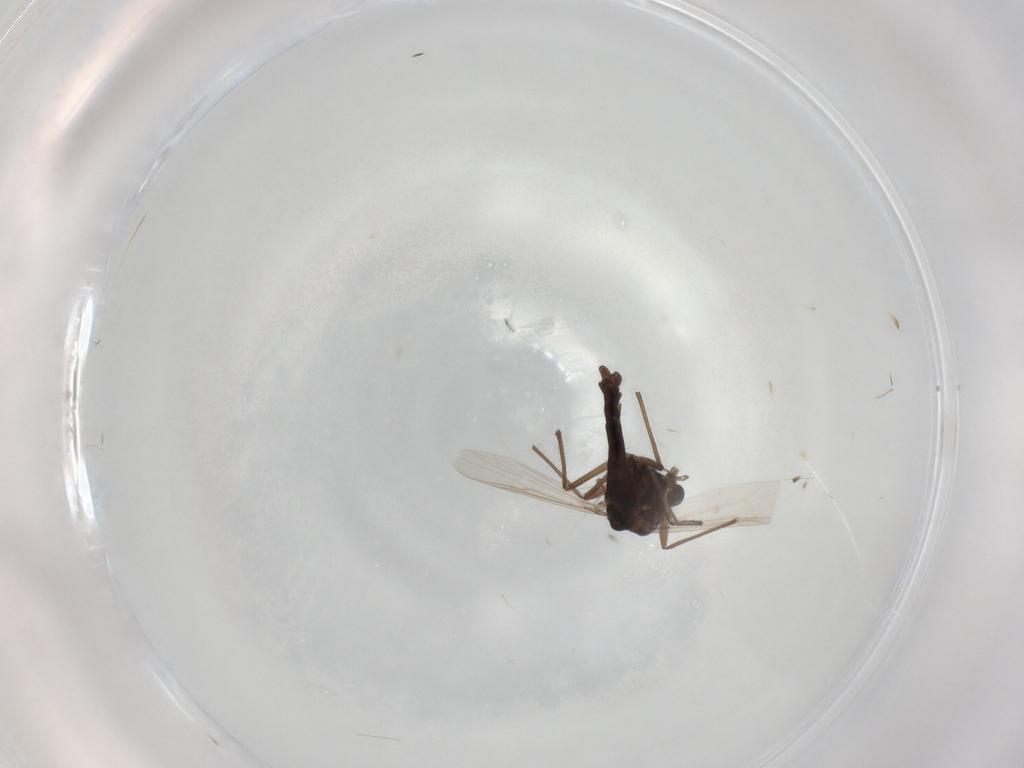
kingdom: Animalia
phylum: Arthropoda
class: Insecta
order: Diptera
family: Chironomidae
